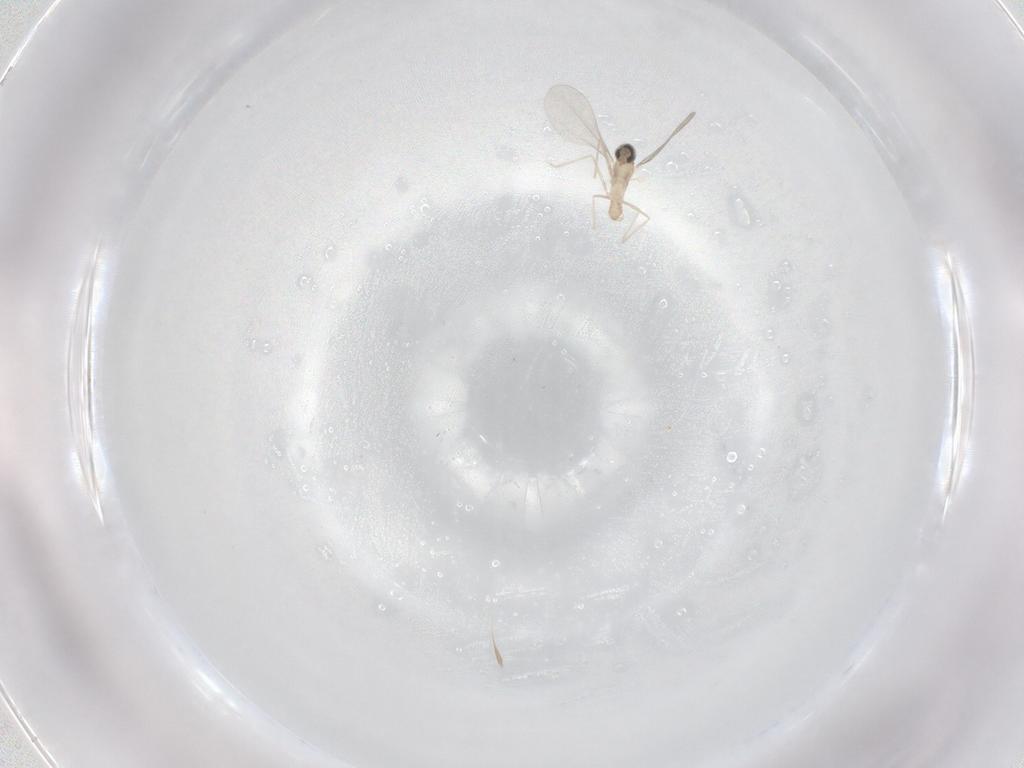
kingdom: Animalia
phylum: Arthropoda
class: Insecta
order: Diptera
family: Cecidomyiidae
